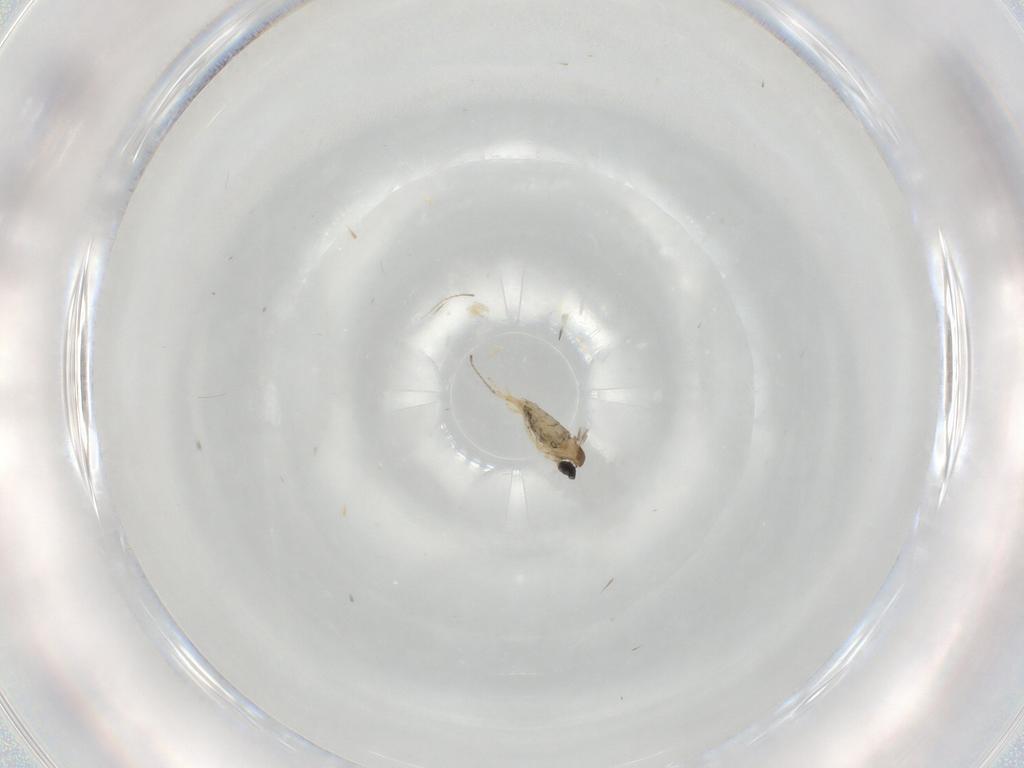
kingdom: Animalia
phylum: Arthropoda
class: Insecta
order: Diptera
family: Cecidomyiidae
